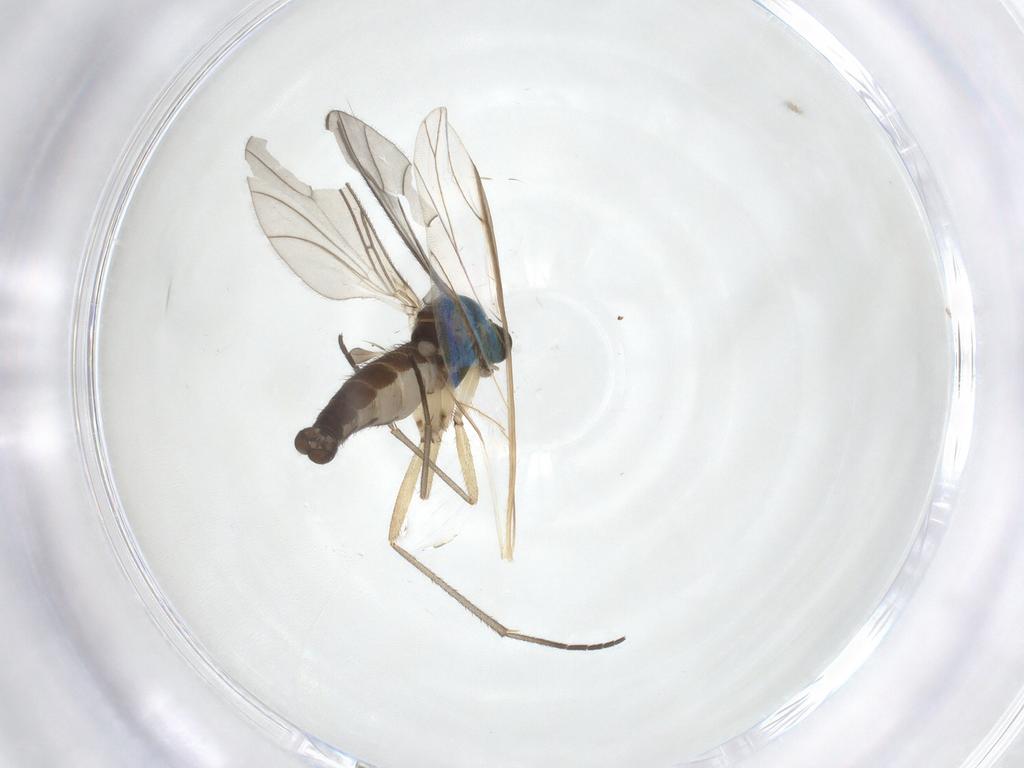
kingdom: Animalia
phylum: Arthropoda
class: Insecta
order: Diptera
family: Sciaridae
